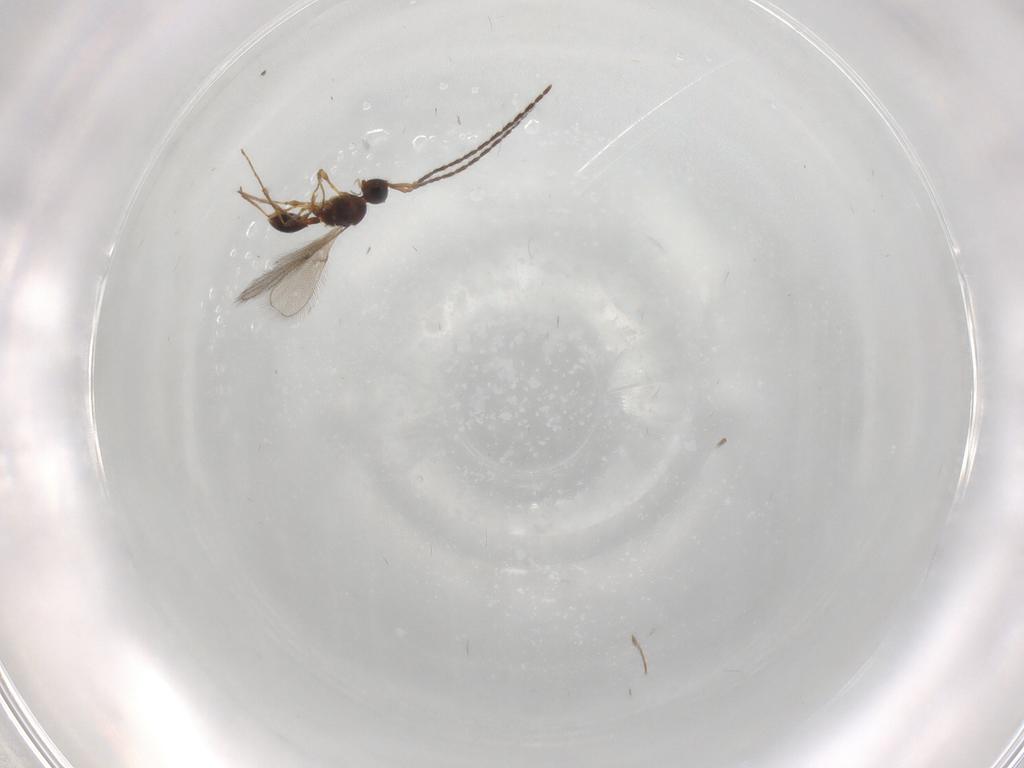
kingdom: Animalia
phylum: Arthropoda
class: Insecta
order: Hymenoptera
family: Diapriidae
